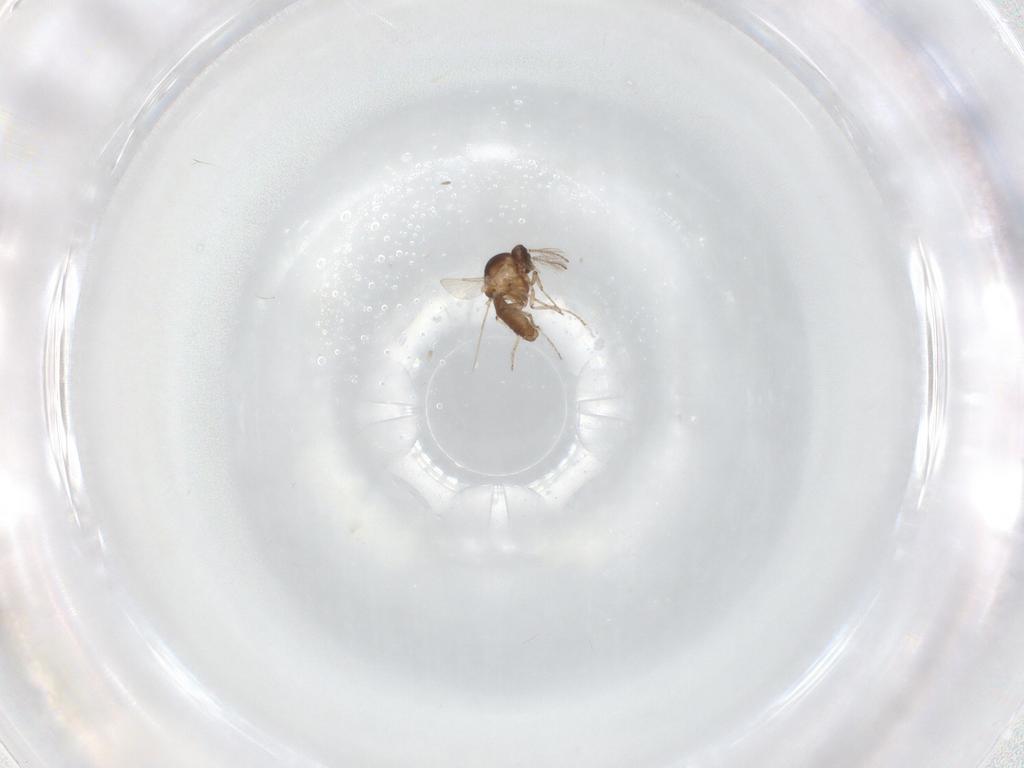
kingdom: Animalia
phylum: Arthropoda
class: Insecta
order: Diptera
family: Ceratopogonidae
